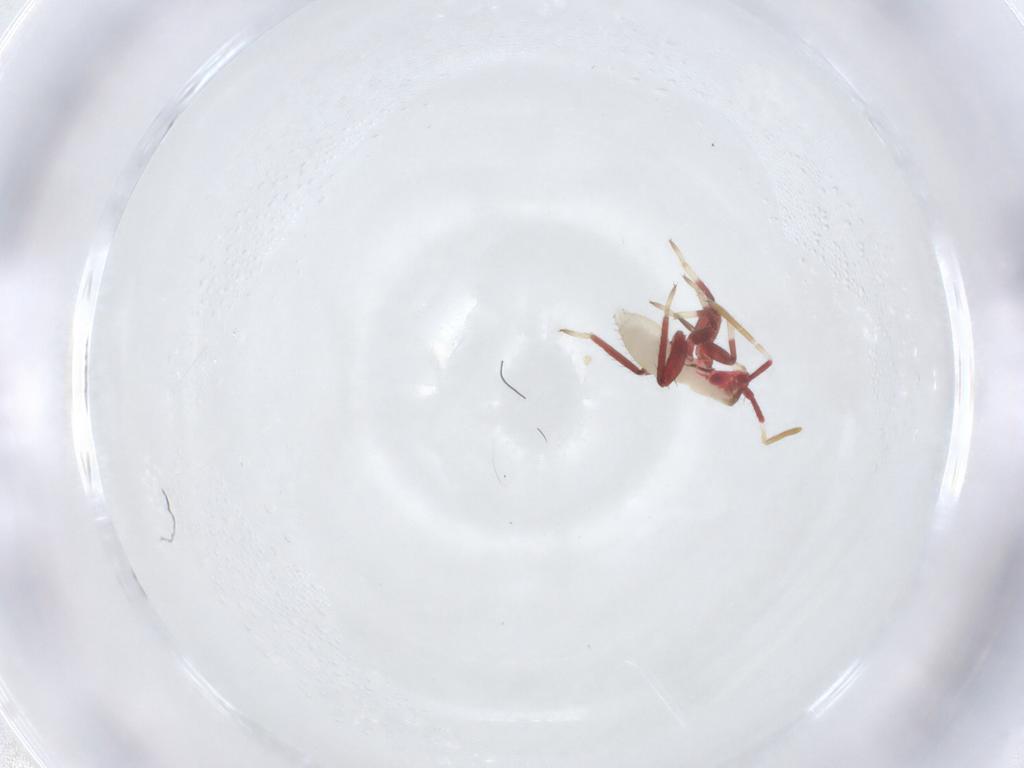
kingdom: Animalia
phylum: Arthropoda
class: Insecta
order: Hemiptera
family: Miridae
